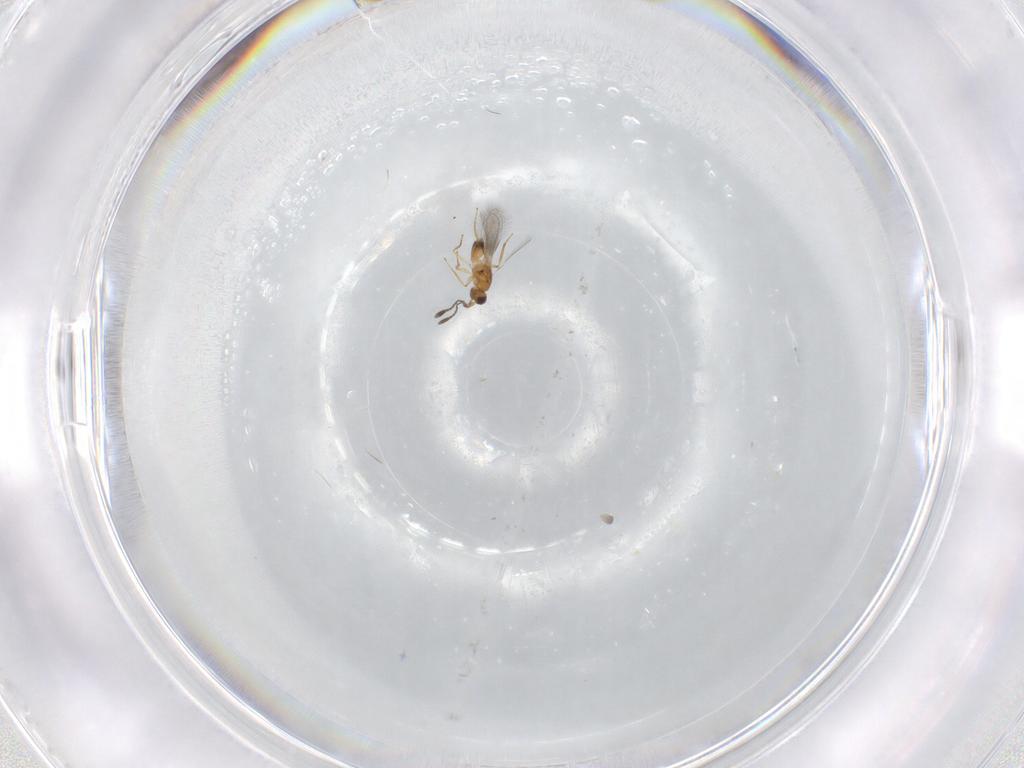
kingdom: Animalia
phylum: Arthropoda
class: Insecta
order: Hymenoptera
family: Mymaridae
